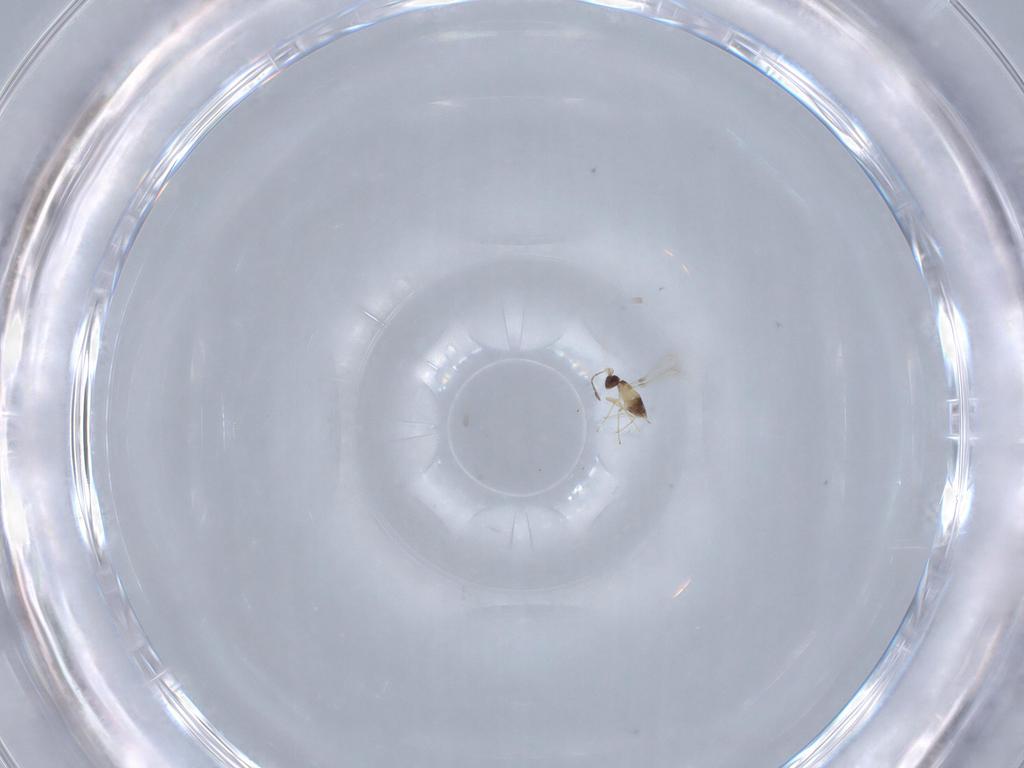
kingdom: Animalia
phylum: Arthropoda
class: Insecta
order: Hymenoptera
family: Mymaridae
